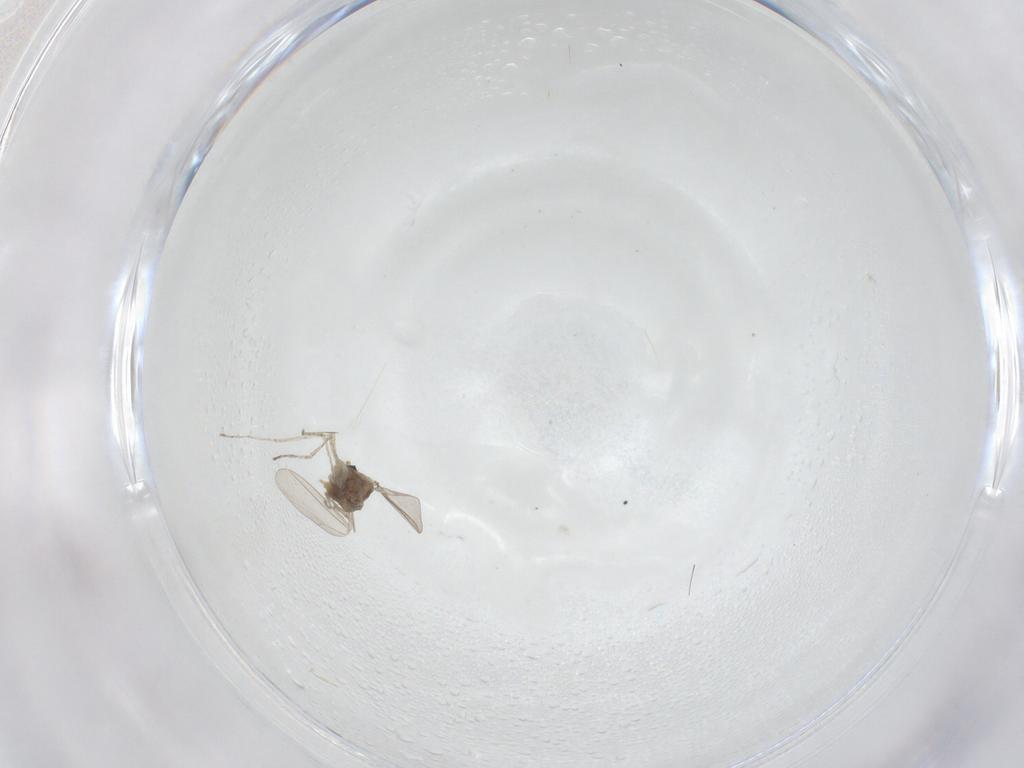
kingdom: Animalia
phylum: Arthropoda
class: Insecta
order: Diptera
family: Cecidomyiidae
